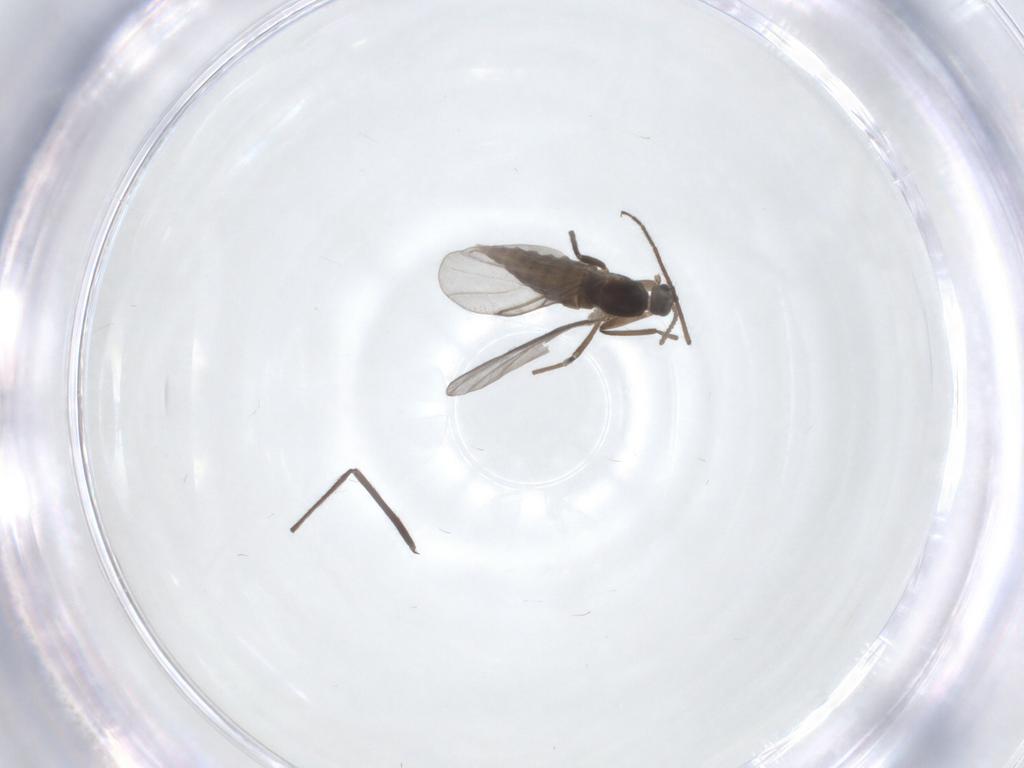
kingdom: Animalia
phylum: Arthropoda
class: Insecta
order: Diptera
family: Cecidomyiidae
